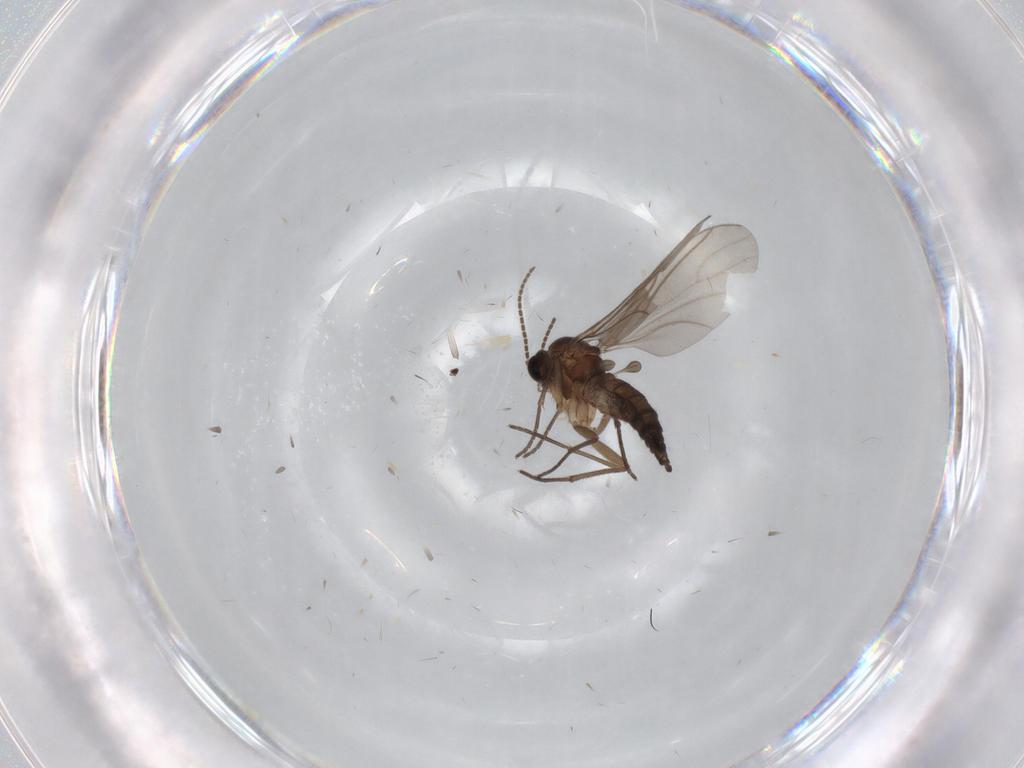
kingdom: Animalia
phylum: Arthropoda
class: Insecta
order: Diptera
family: Sciaridae
